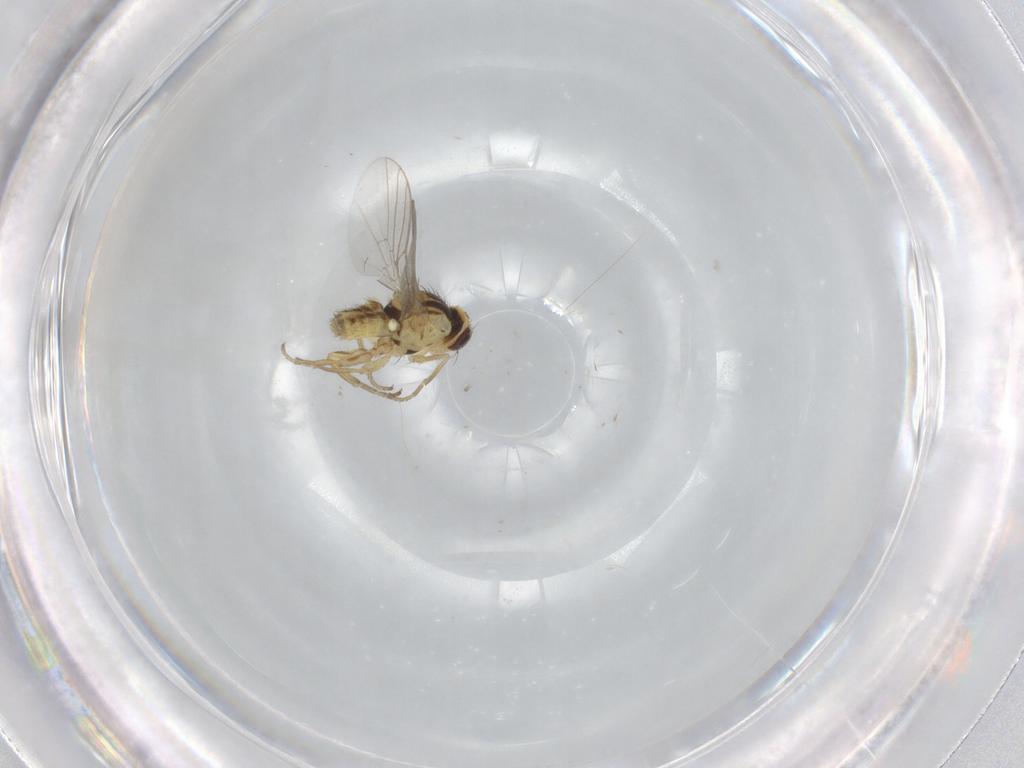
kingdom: Animalia
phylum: Arthropoda
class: Insecta
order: Diptera
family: Agromyzidae
